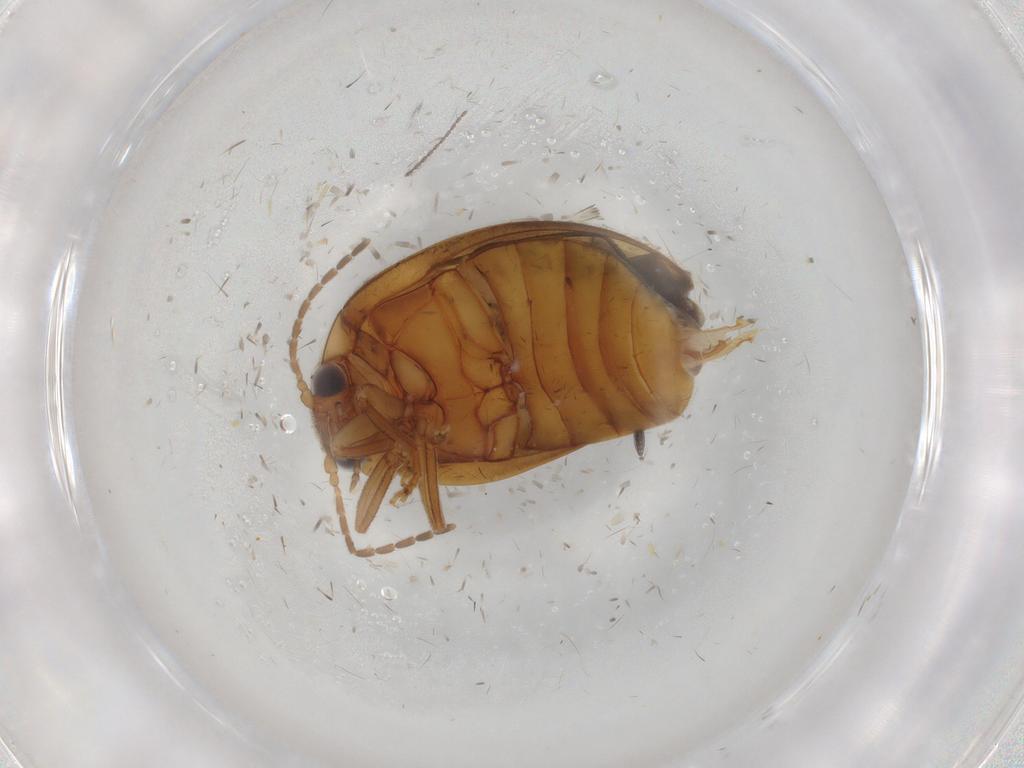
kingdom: Animalia
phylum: Arthropoda
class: Insecta
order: Coleoptera
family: Scirtidae
